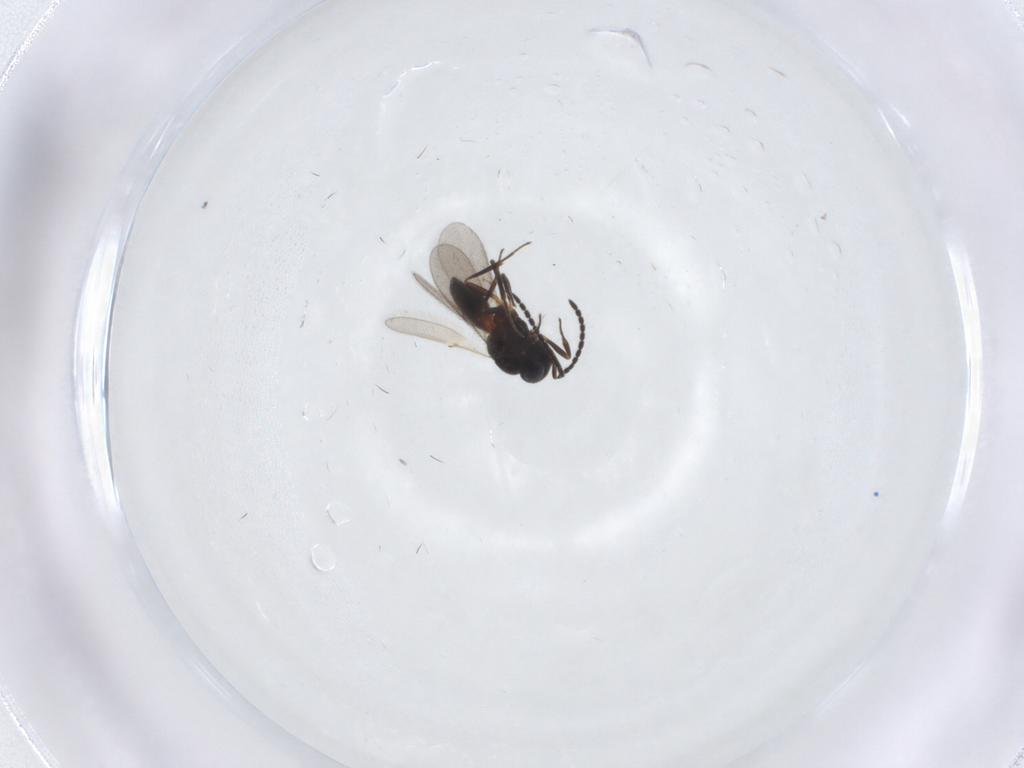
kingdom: Animalia
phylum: Arthropoda
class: Insecta
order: Hymenoptera
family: Scelionidae
